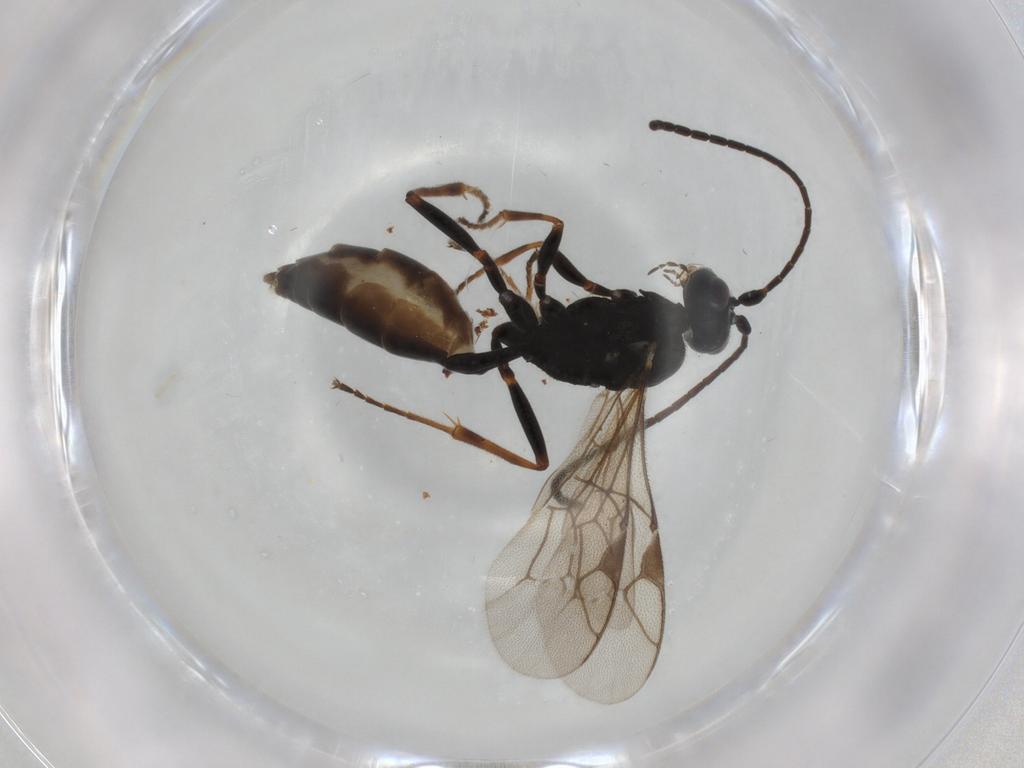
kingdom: Animalia
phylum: Arthropoda
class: Insecta
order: Hymenoptera
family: Ichneumonidae
